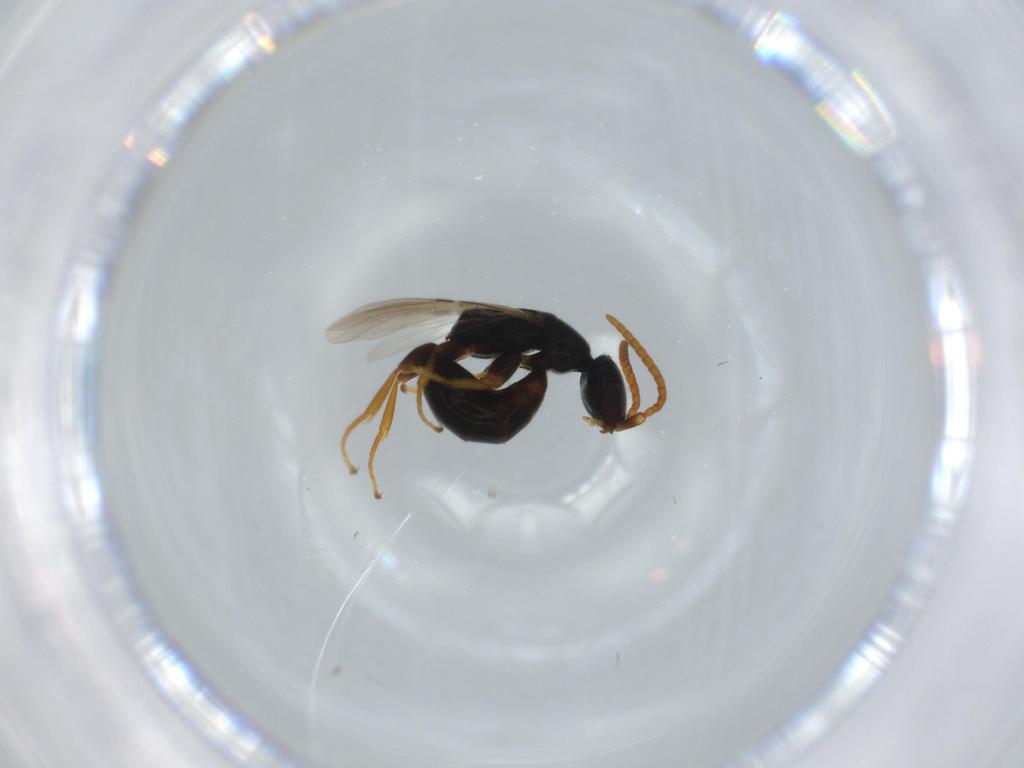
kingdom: Animalia
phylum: Arthropoda
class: Insecta
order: Hymenoptera
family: Bethylidae
